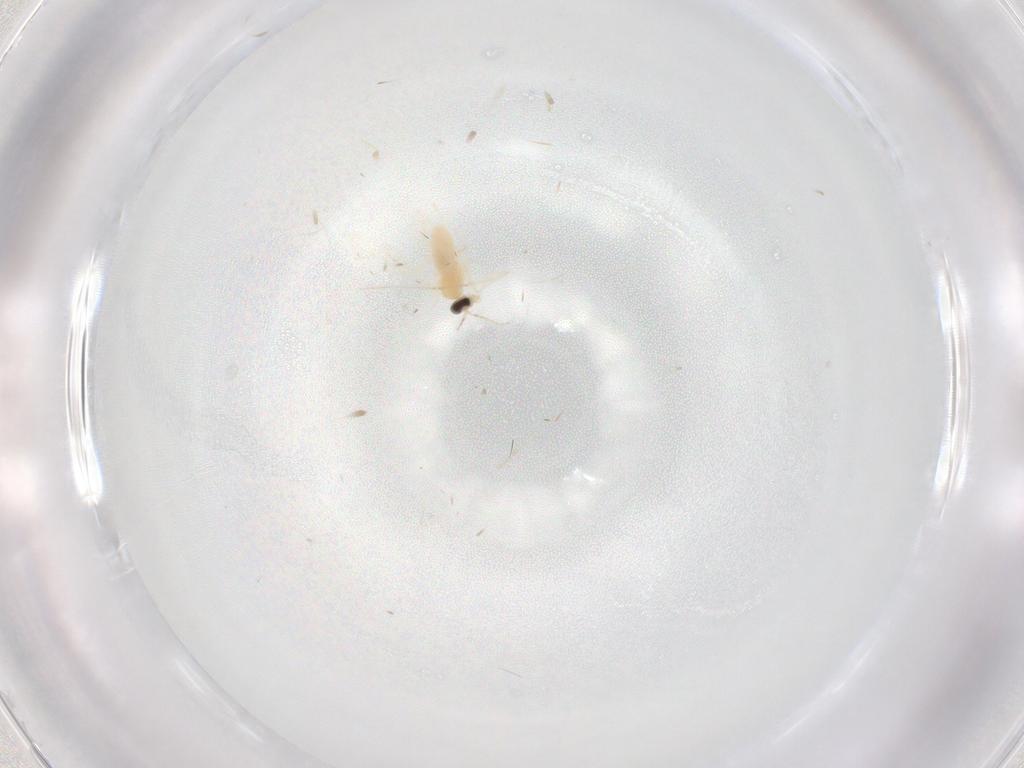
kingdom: Animalia
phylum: Arthropoda
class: Insecta
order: Diptera
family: Cecidomyiidae
